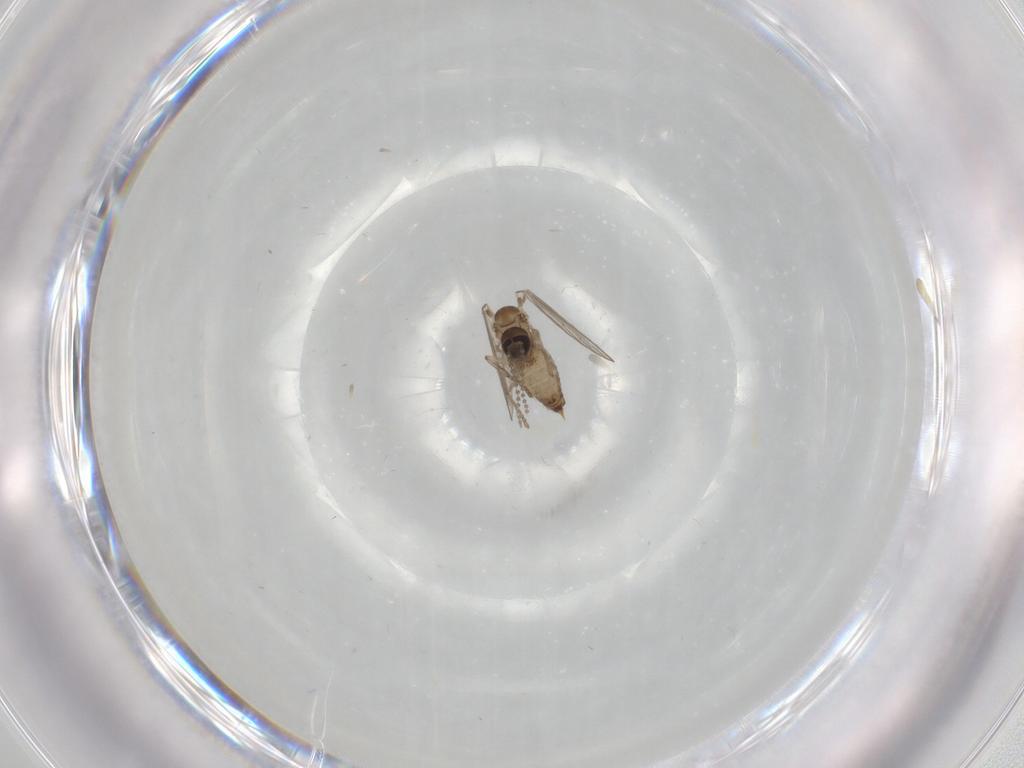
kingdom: Animalia
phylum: Arthropoda
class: Insecta
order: Diptera
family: Psychodidae
